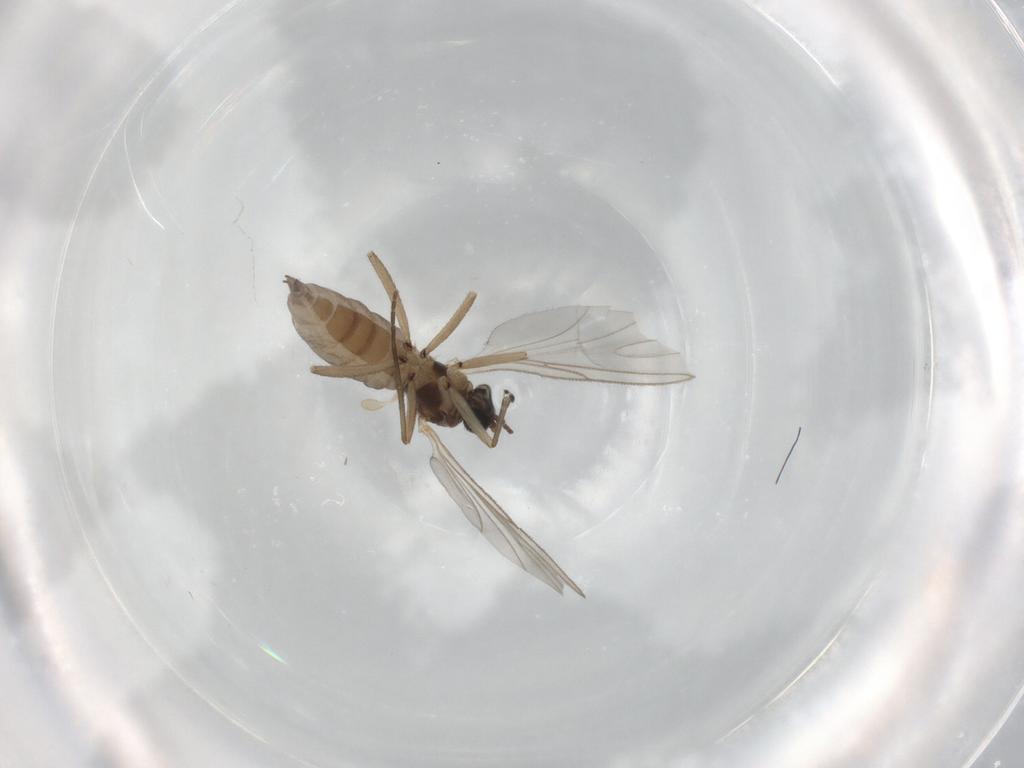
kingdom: Animalia
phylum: Arthropoda
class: Insecta
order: Diptera
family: Sciaridae
